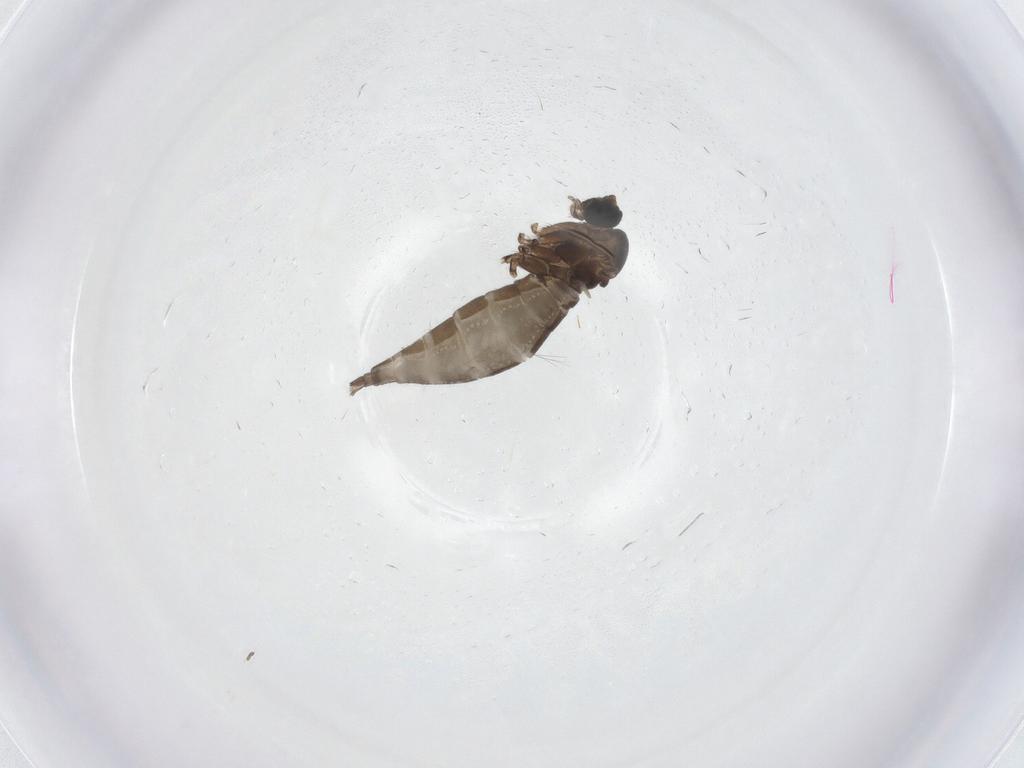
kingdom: Animalia
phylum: Arthropoda
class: Insecta
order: Diptera
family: Sciaridae
